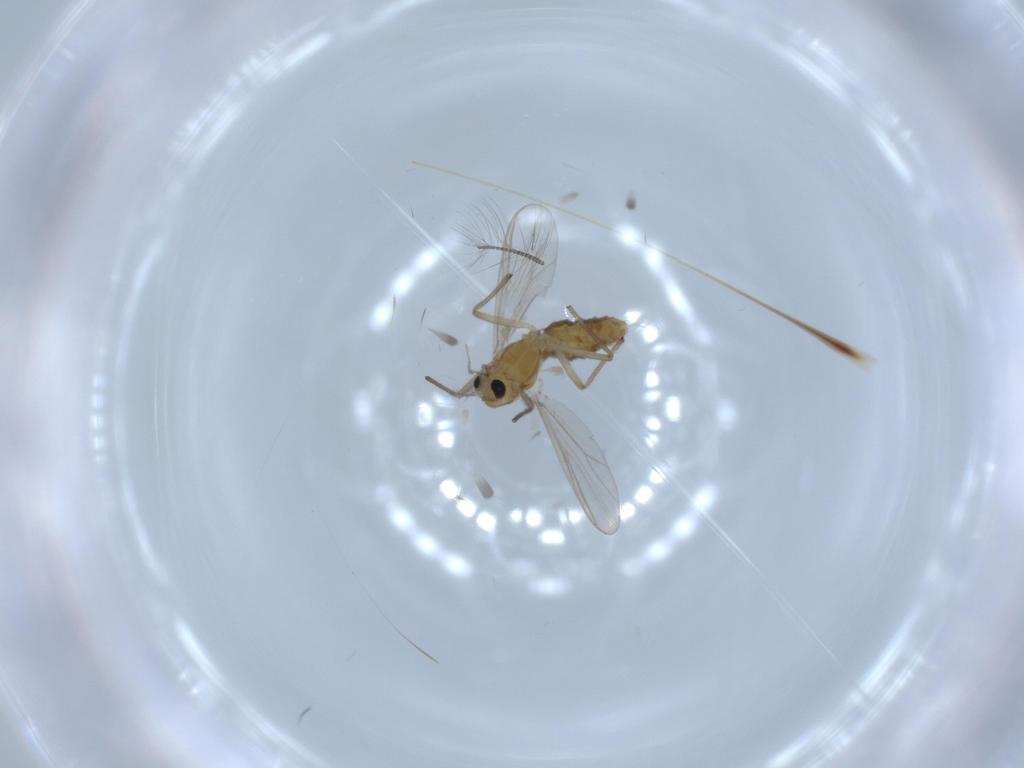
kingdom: Animalia
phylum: Arthropoda
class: Insecta
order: Diptera
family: Chironomidae
